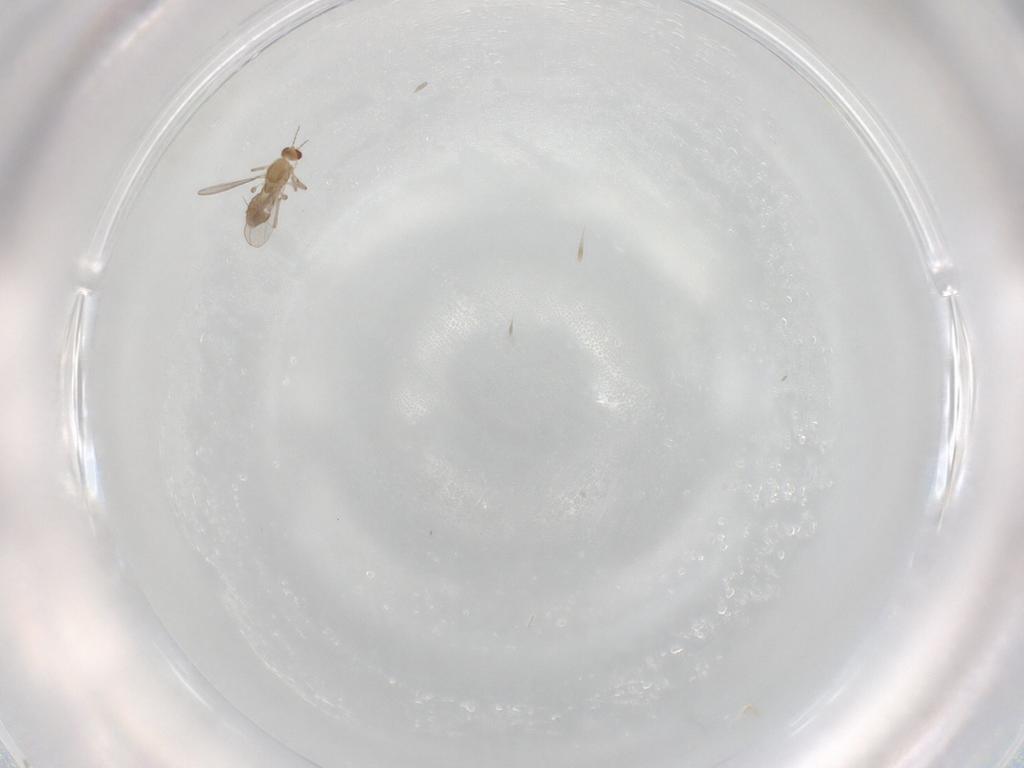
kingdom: Animalia
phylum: Arthropoda
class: Insecta
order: Diptera
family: Chironomidae
